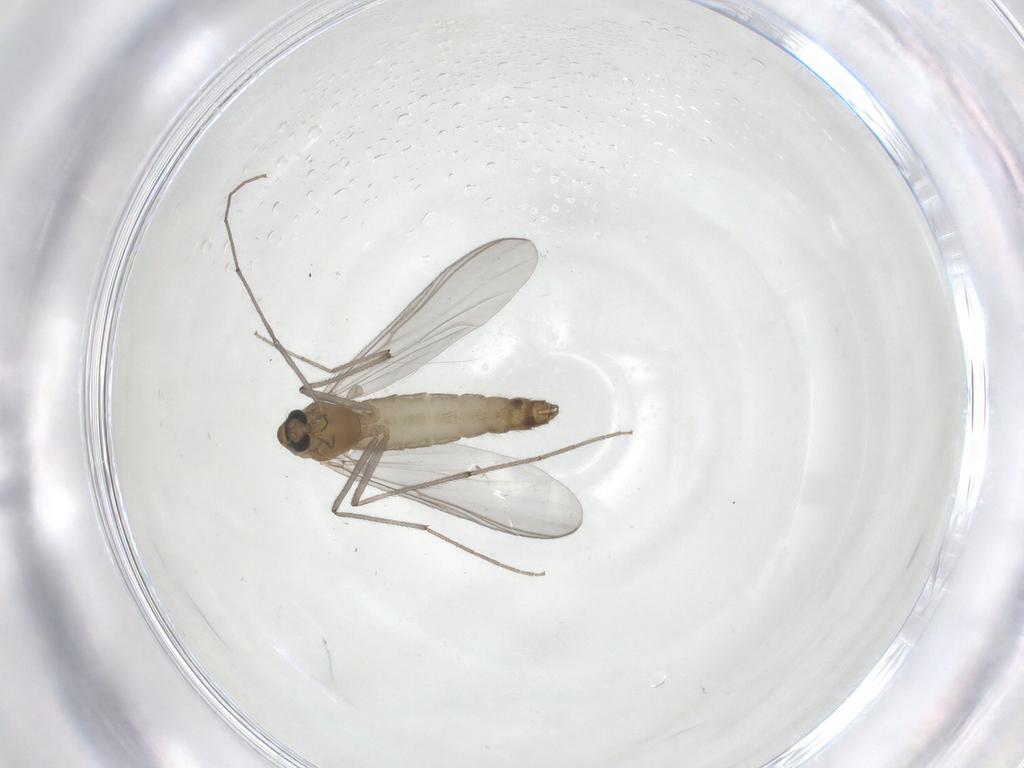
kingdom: Animalia
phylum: Arthropoda
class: Insecta
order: Diptera
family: Chironomidae
